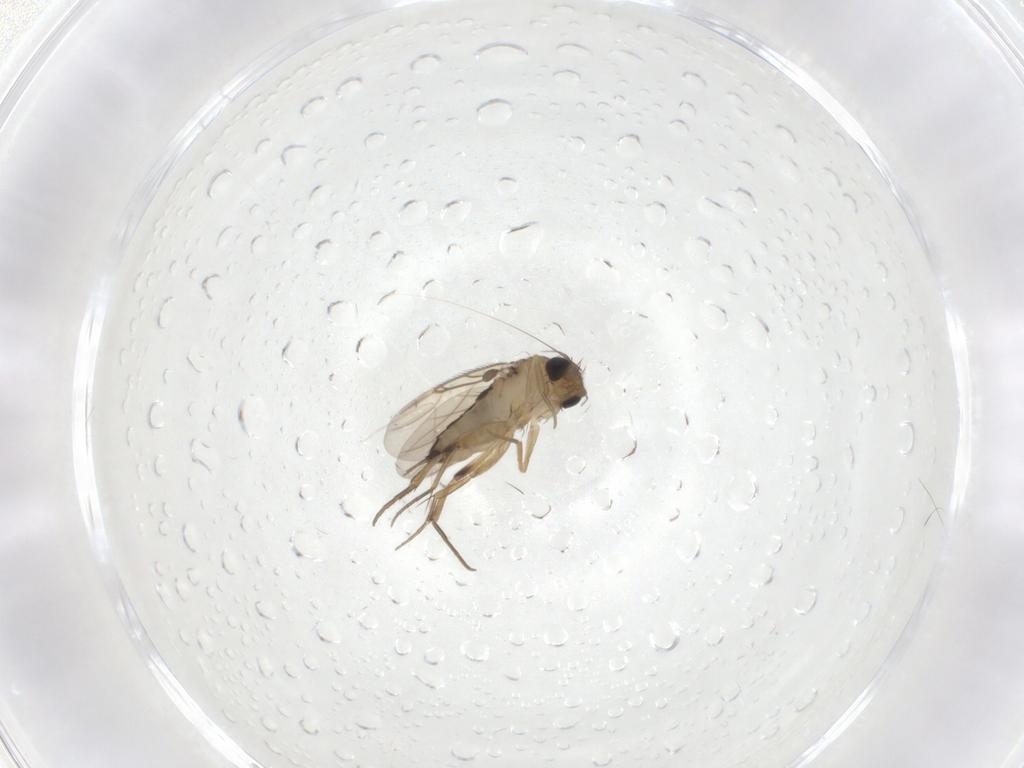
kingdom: Animalia
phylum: Arthropoda
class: Insecta
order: Diptera
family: Phoridae
